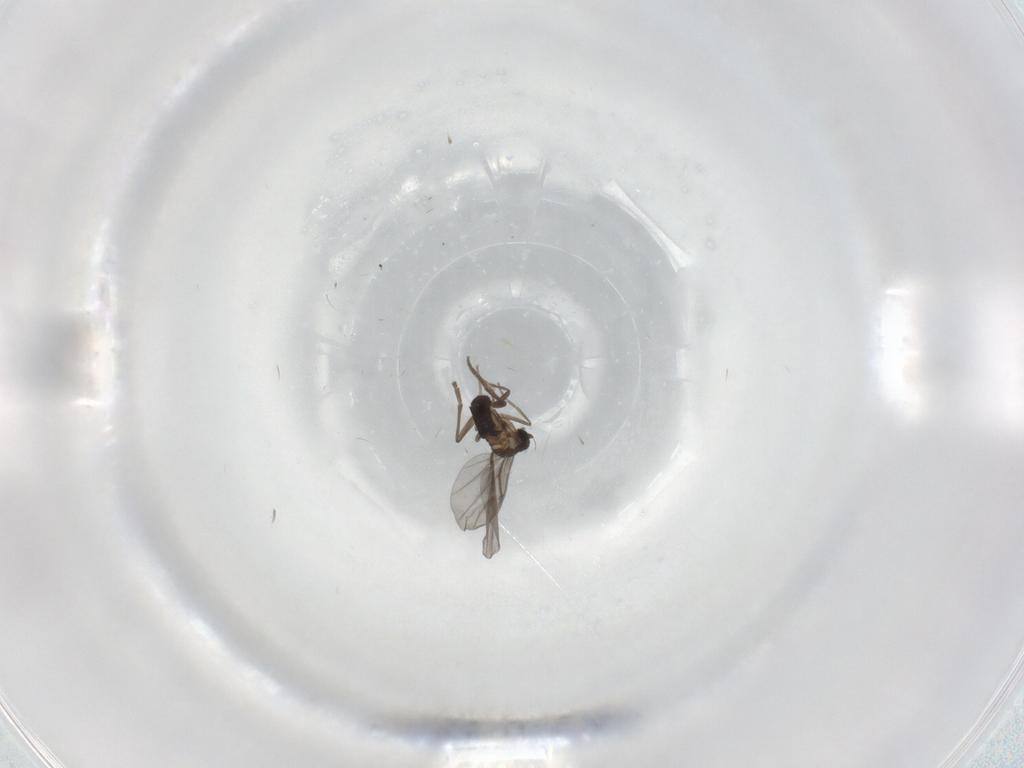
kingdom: Animalia
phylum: Arthropoda
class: Insecta
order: Diptera
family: Phoridae
